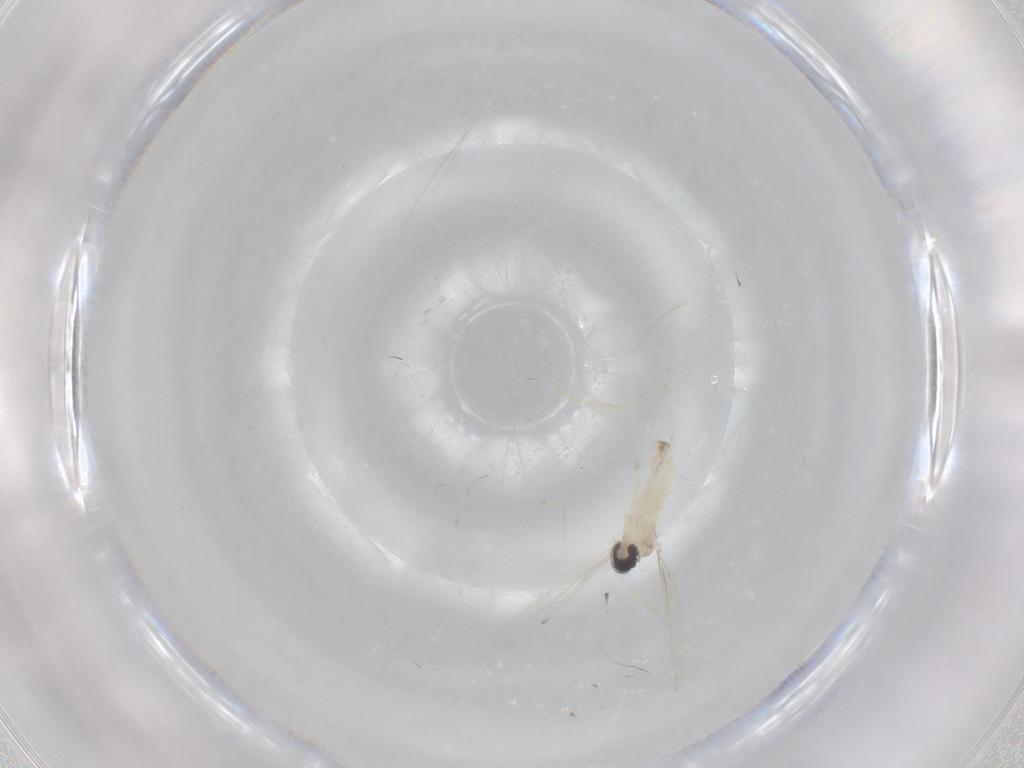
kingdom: Animalia
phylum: Arthropoda
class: Insecta
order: Diptera
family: Cecidomyiidae
